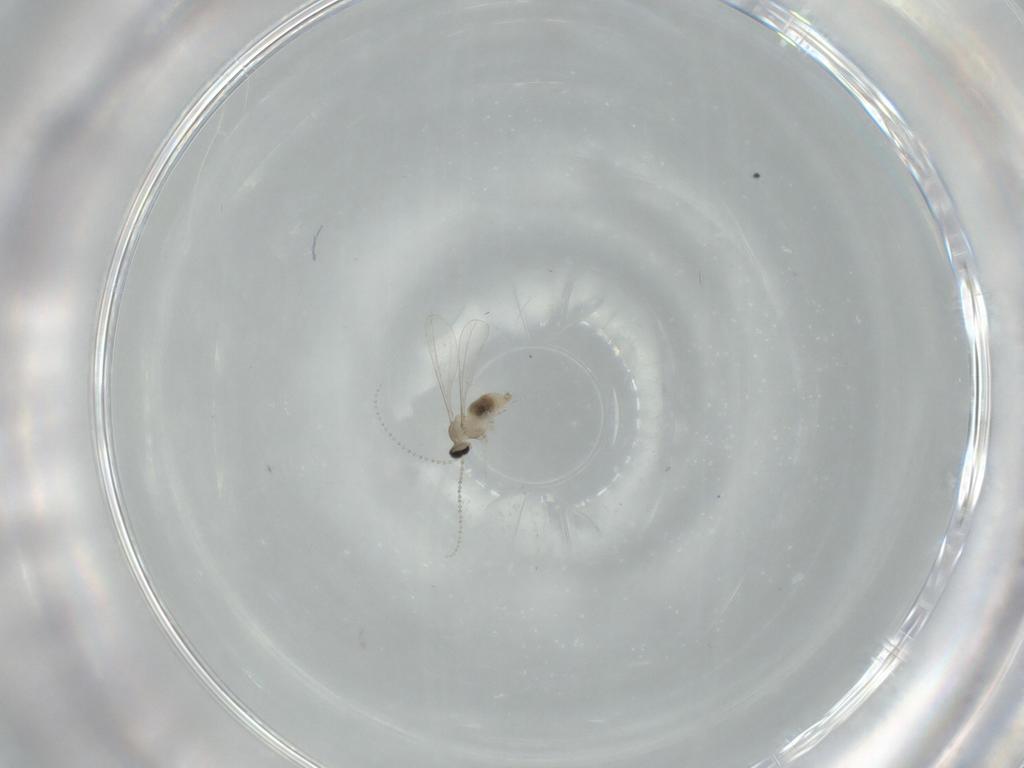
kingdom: Animalia
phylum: Arthropoda
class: Insecta
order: Diptera
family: Cecidomyiidae
